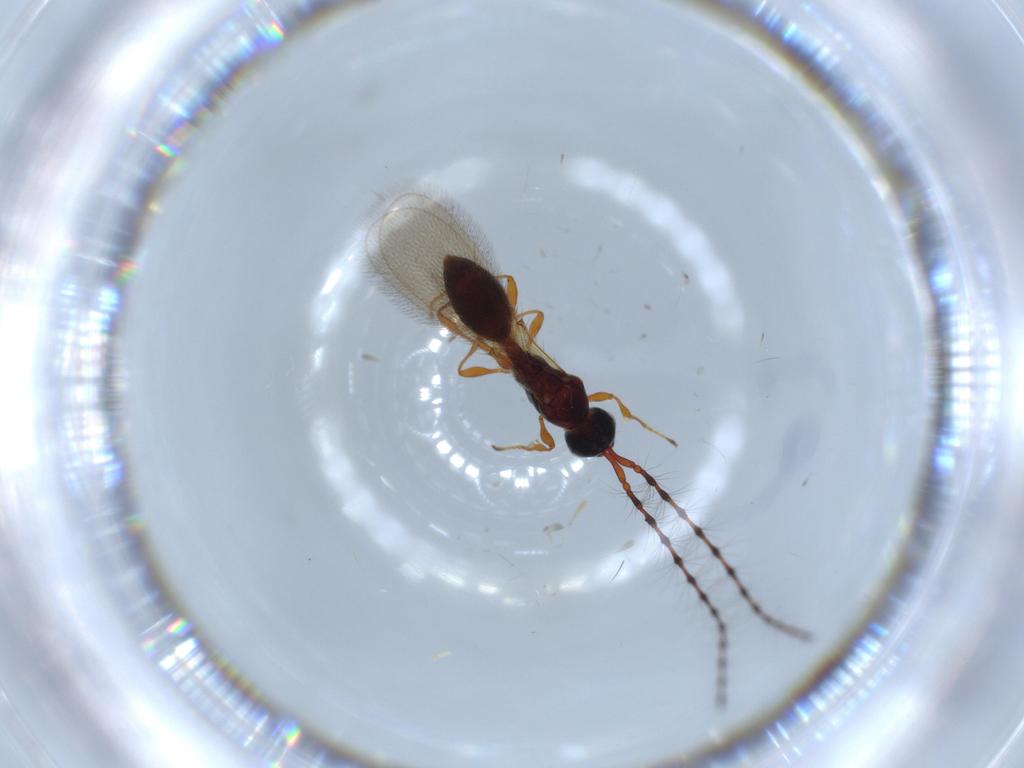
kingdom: Animalia
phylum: Arthropoda
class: Insecta
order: Hymenoptera
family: Diapriidae
